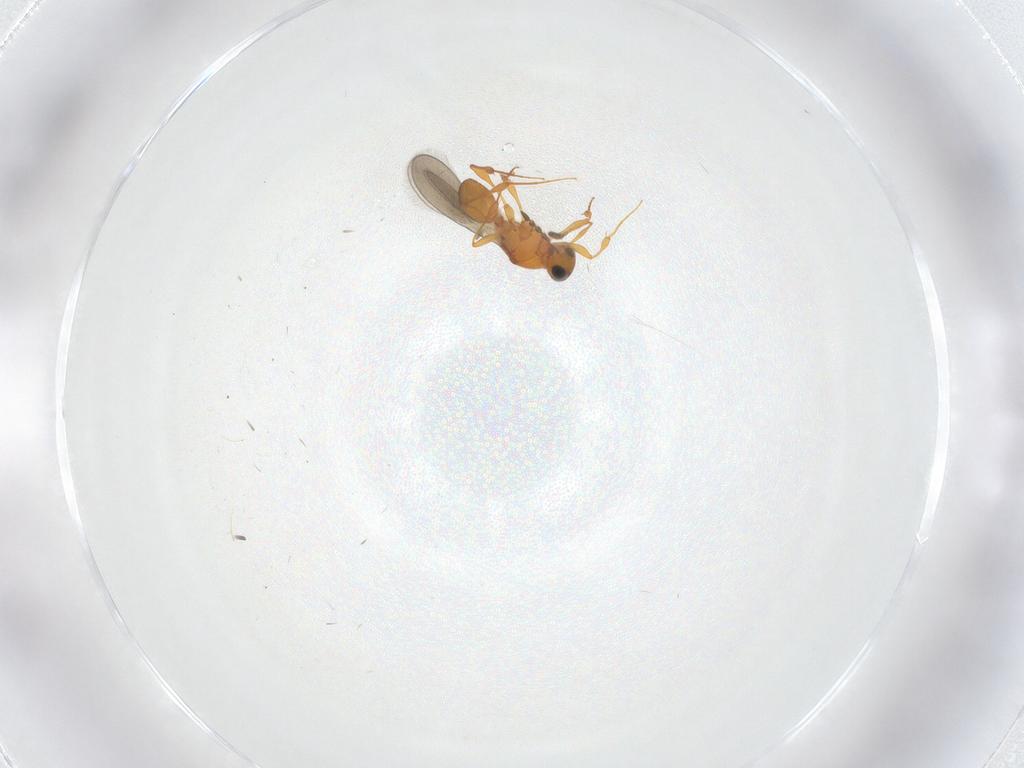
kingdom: Animalia
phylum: Arthropoda
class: Insecta
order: Hymenoptera
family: Platygastridae
